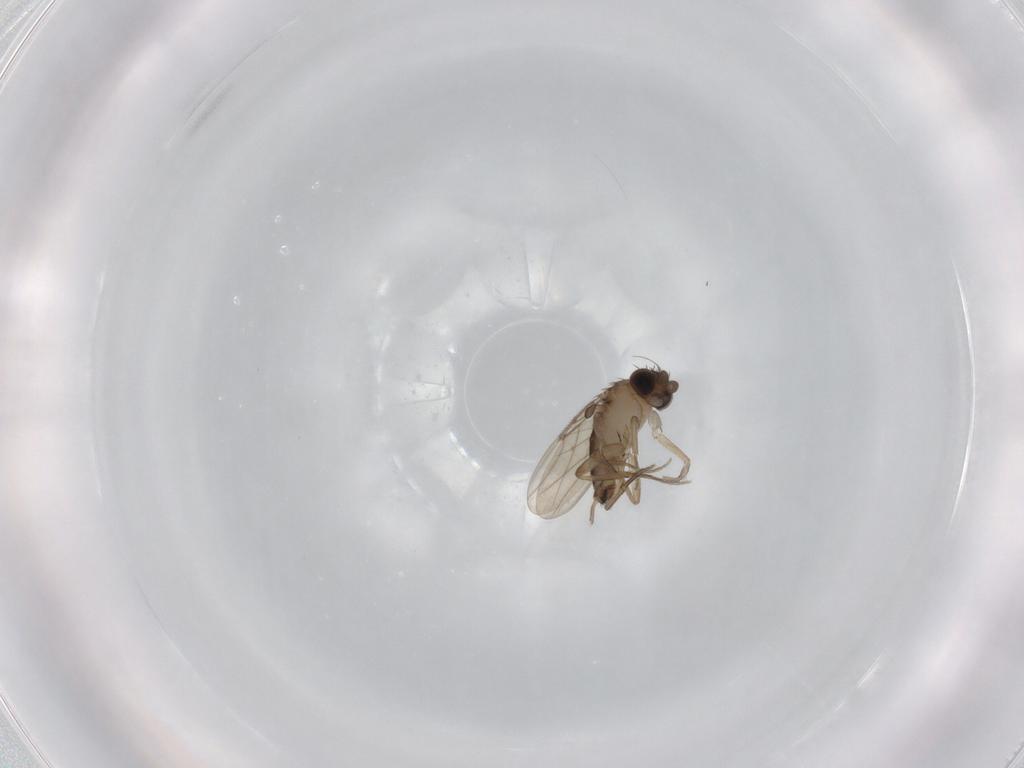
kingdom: Animalia
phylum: Arthropoda
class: Insecta
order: Diptera
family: Phoridae
